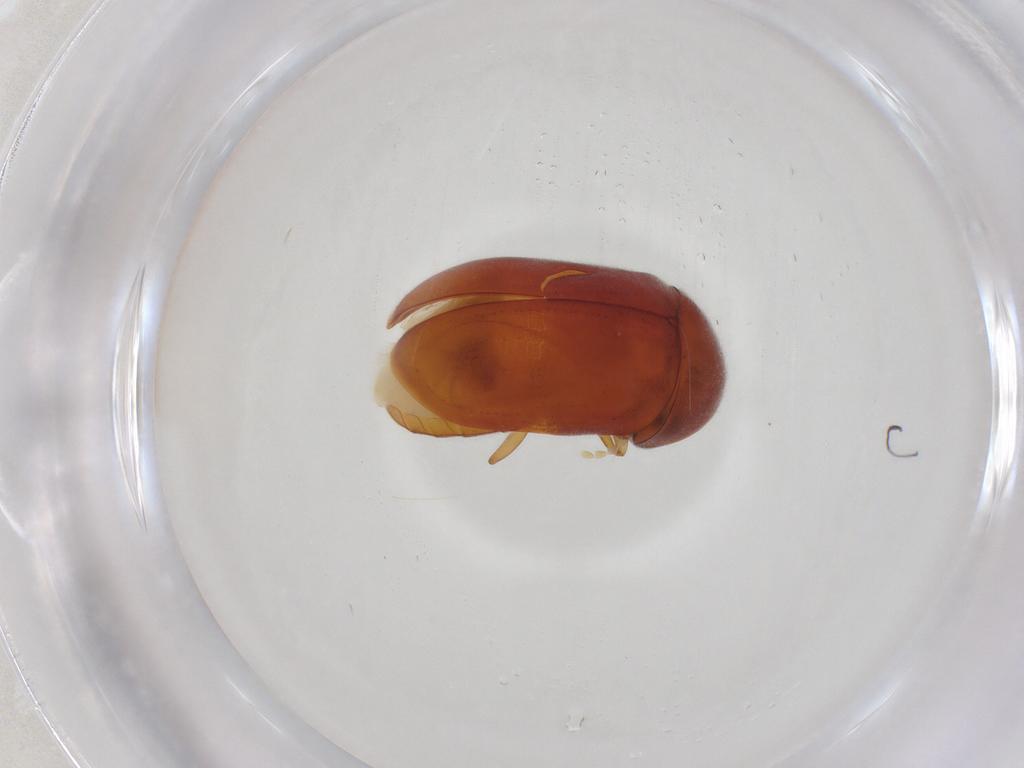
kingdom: Animalia
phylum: Arthropoda
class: Insecta
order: Coleoptera
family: Ptinidae
